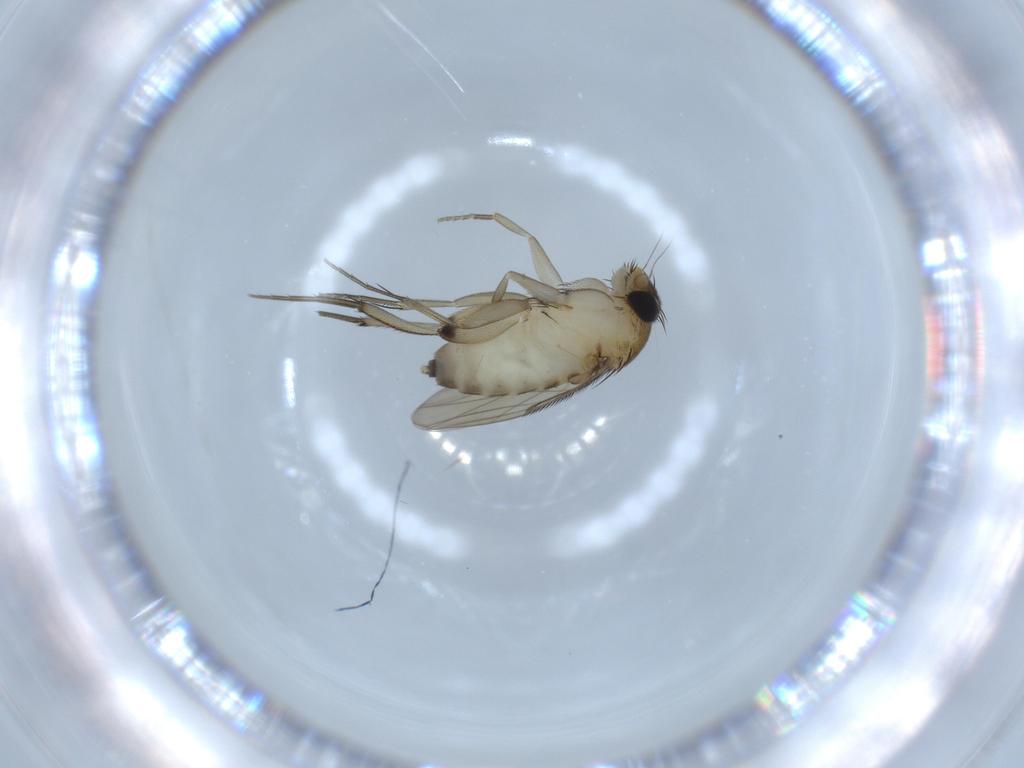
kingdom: Animalia
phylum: Arthropoda
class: Insecta
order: Diptera
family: Phoridae
